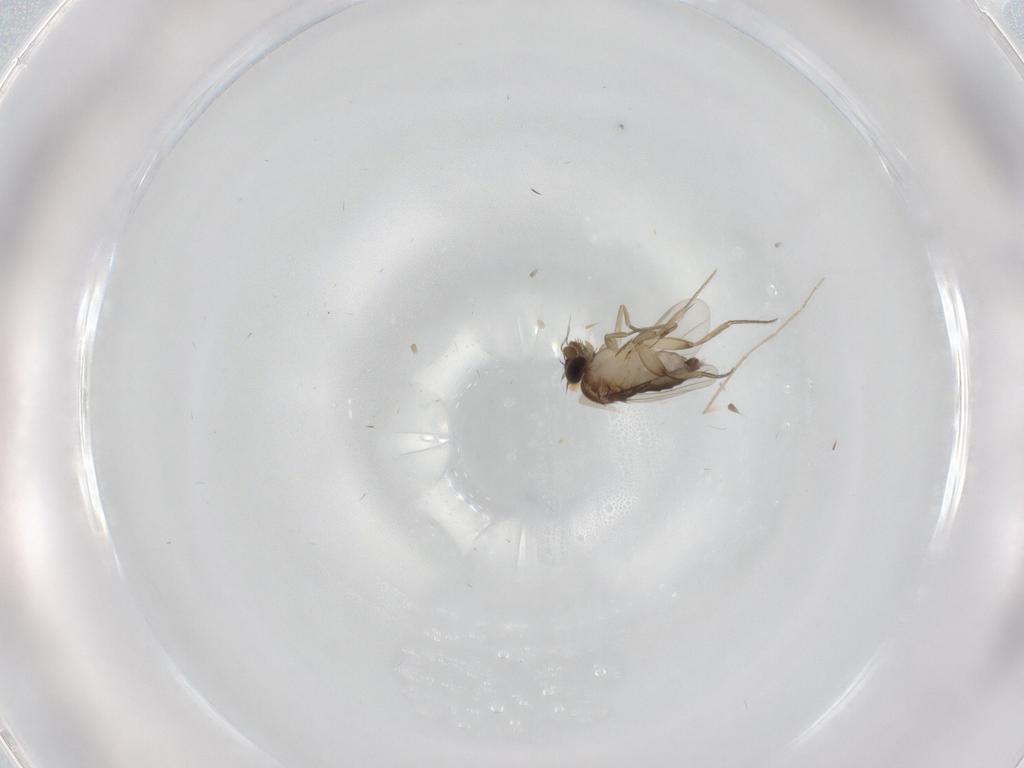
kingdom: Animalia
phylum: Arthropoda
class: Insecta
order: Diptera
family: Phoridae
